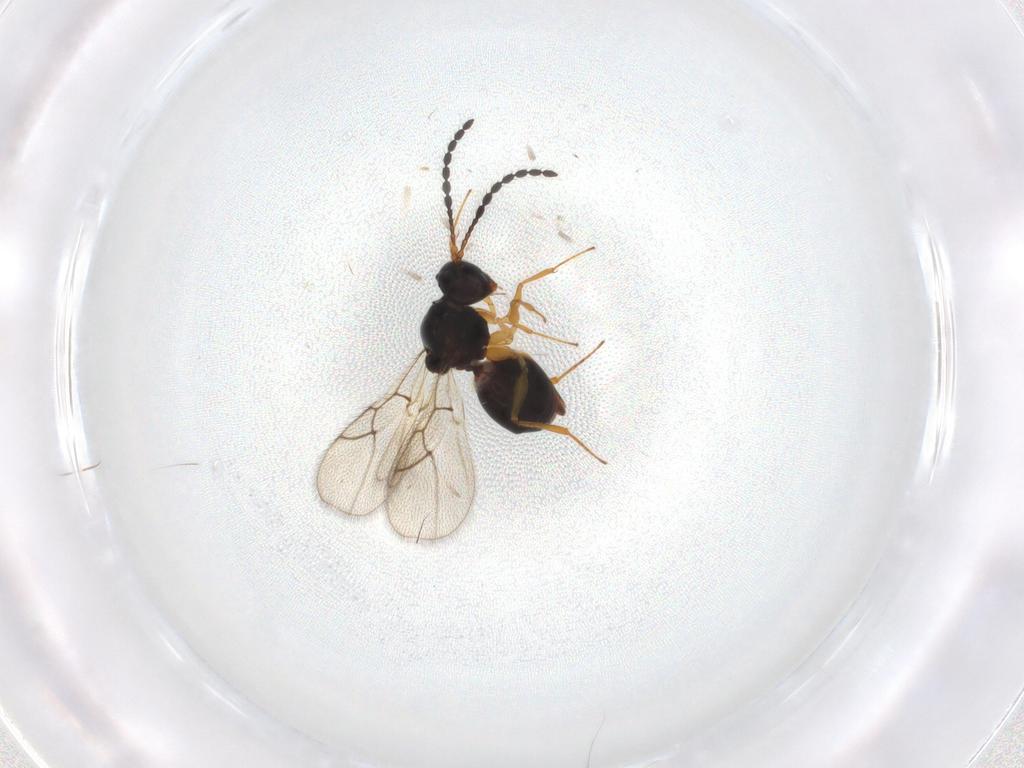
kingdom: Animalia
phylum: Arthropoda
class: Insecta
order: Hymenoptera
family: Figitidae
